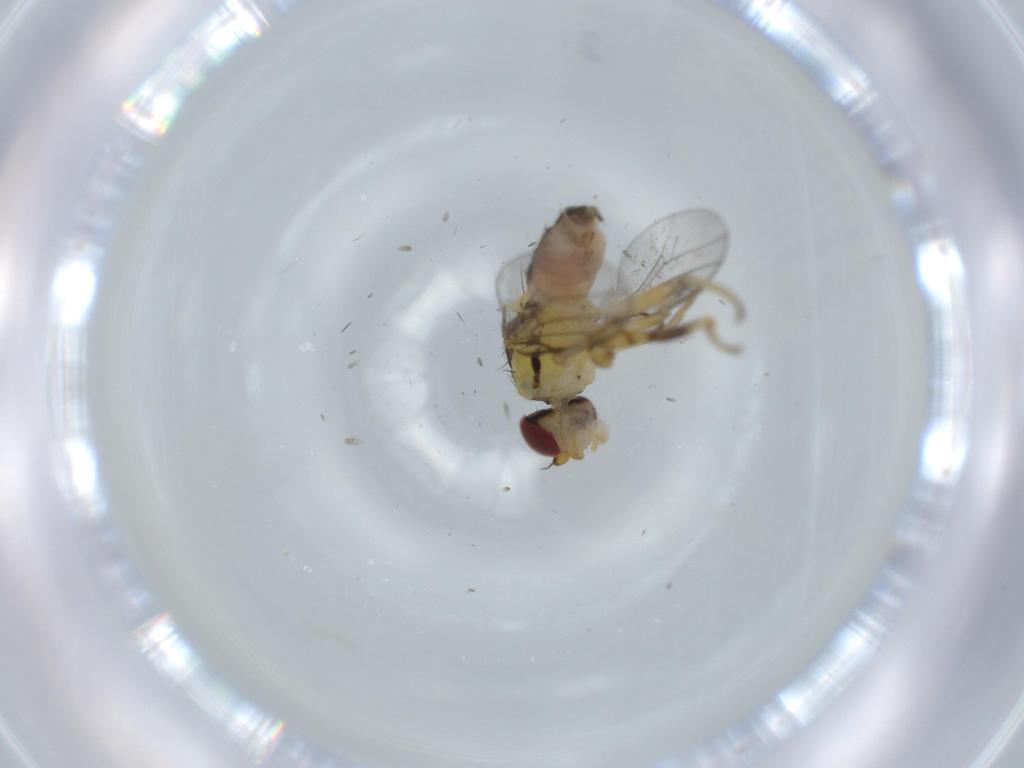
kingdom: Animalia
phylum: Arthropoda
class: Insecta
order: Diptera
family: Chloropidae
